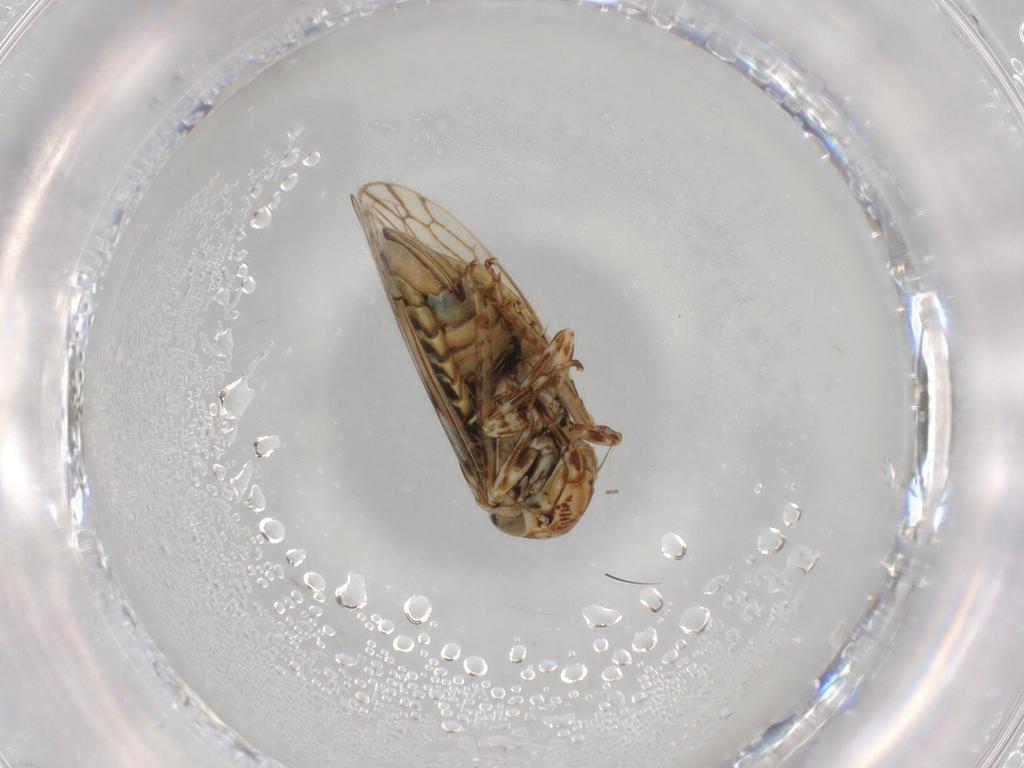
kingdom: Animalia
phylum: Arthropoda
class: Insecta
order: Hemiptera
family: Cicadellidae
